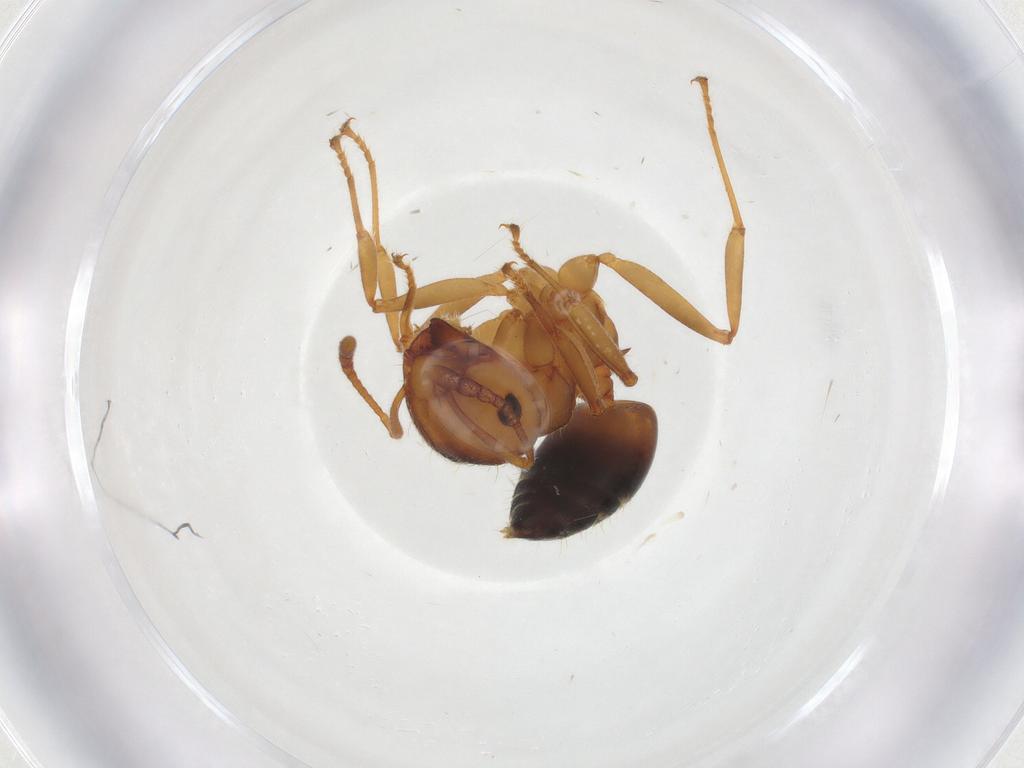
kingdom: Animalia
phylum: Arthropoda
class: Insecta
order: Hymenoptera
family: Formicidae
